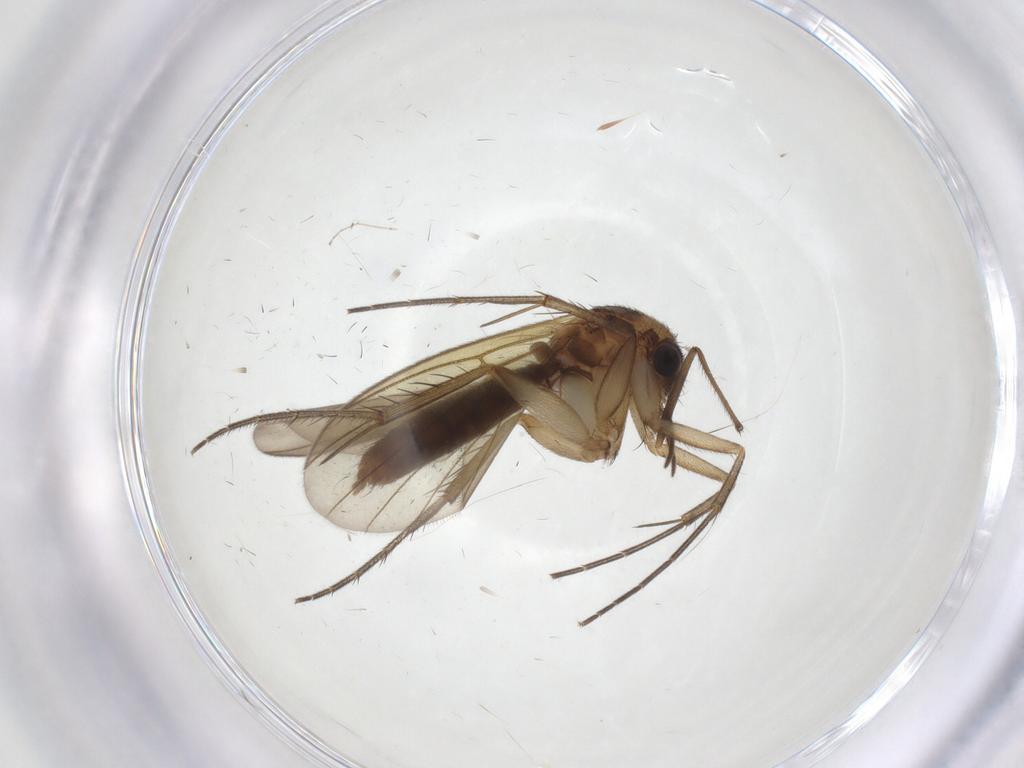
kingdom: Animalia
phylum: Arthropoda
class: Insecta
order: Diptera
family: Mycetophilidae
